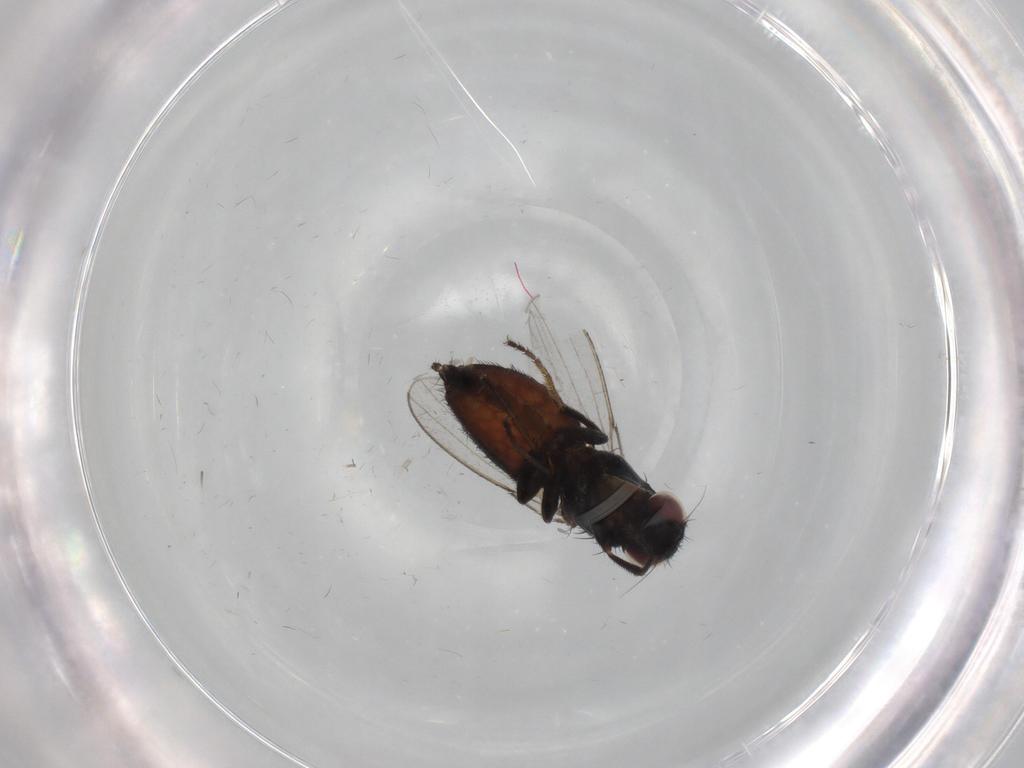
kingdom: Animalia
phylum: Arthropoda
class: Insecta
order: Diptera
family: Milichiidae
